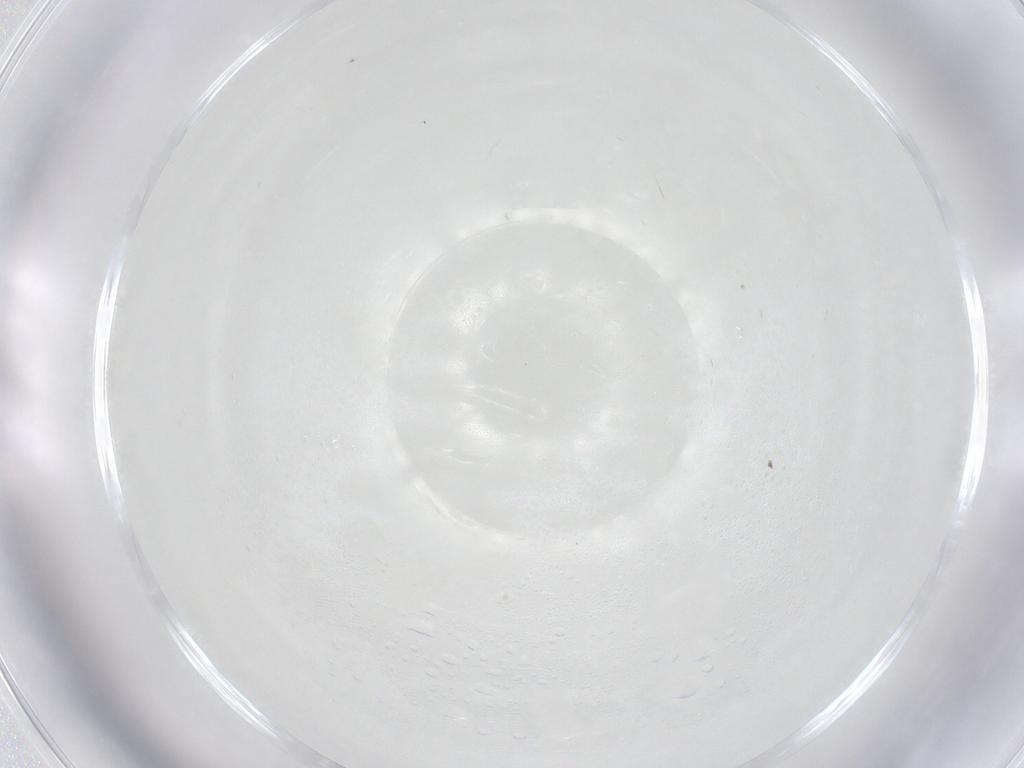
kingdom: Animalia
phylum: Arthropoda
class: Arachnida
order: Trombidiformes
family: Tetranychidae
